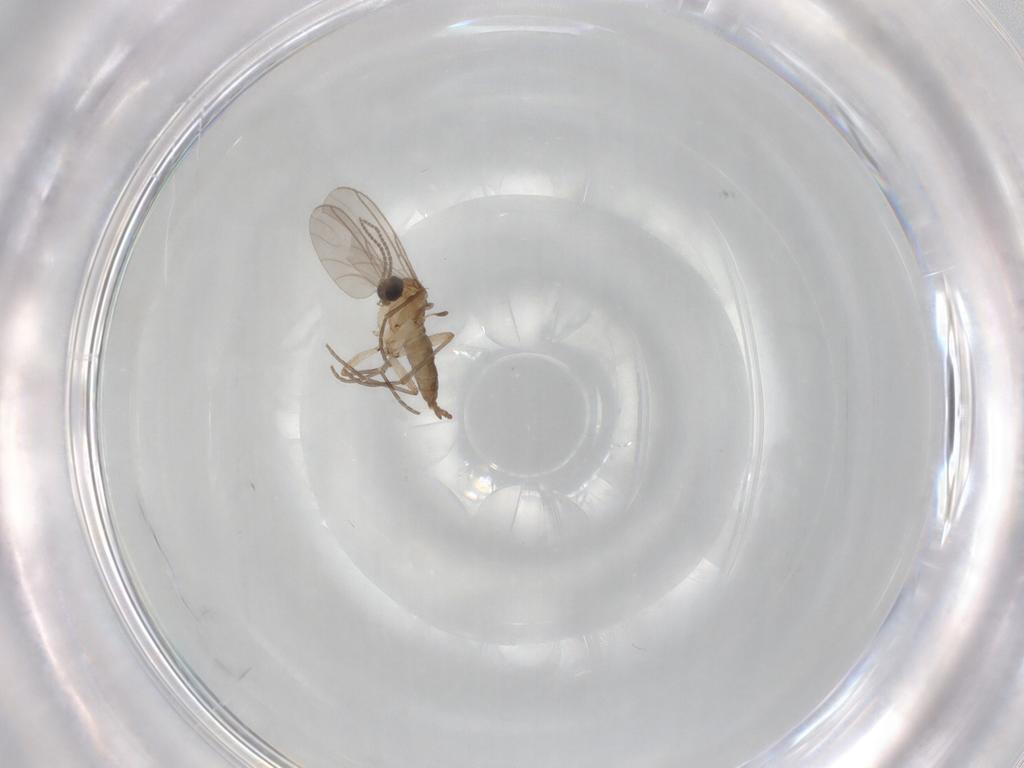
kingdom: Animalia
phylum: Arthropoda
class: Insecta
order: Diptera
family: Sciaridae
